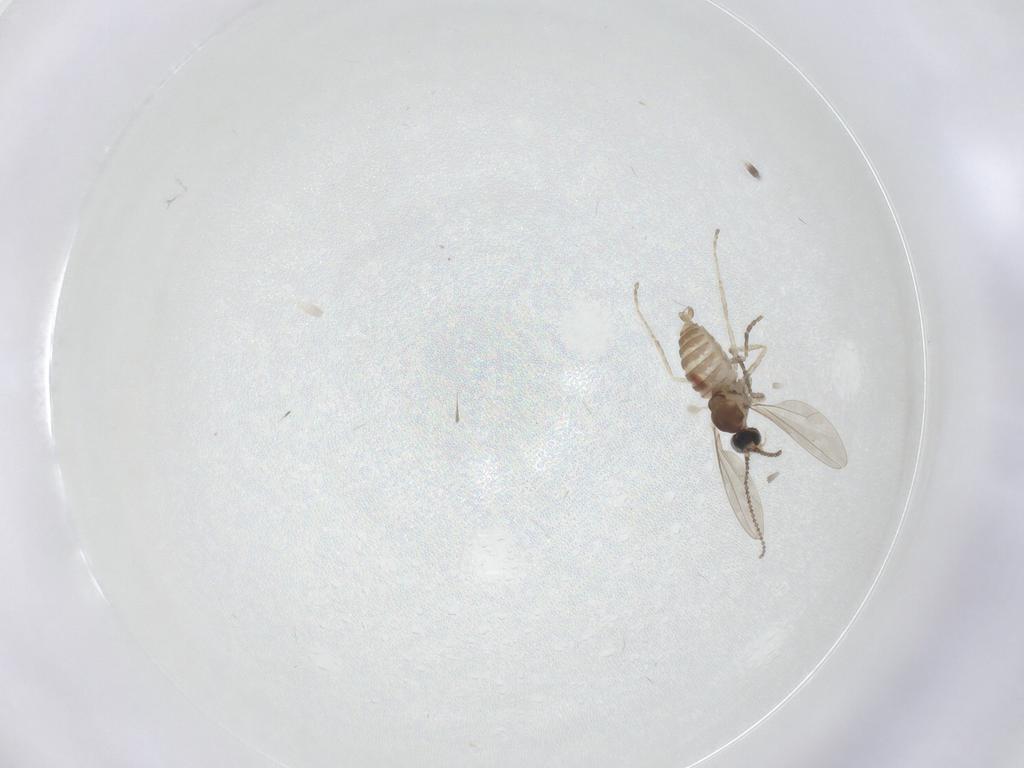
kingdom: Animalia
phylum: Arthropoda
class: Insecta
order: Diptera
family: Cecidomyiidae
